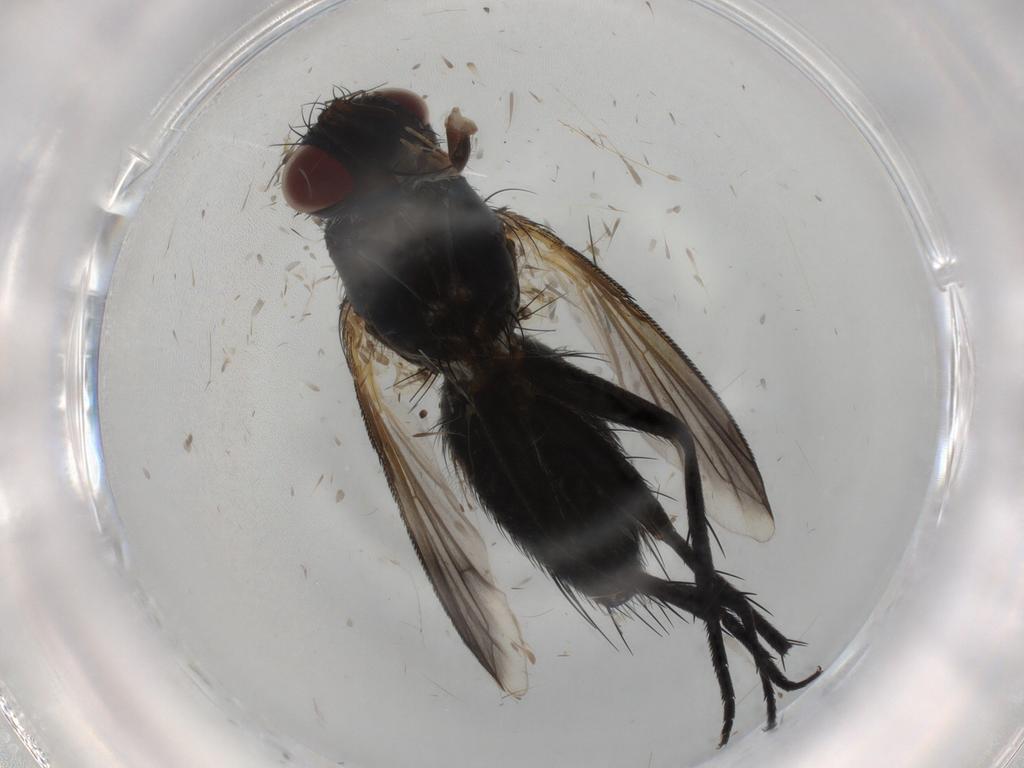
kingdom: Animalia
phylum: Arthropoda
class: Insecta
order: Diptera
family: Tachinidae
